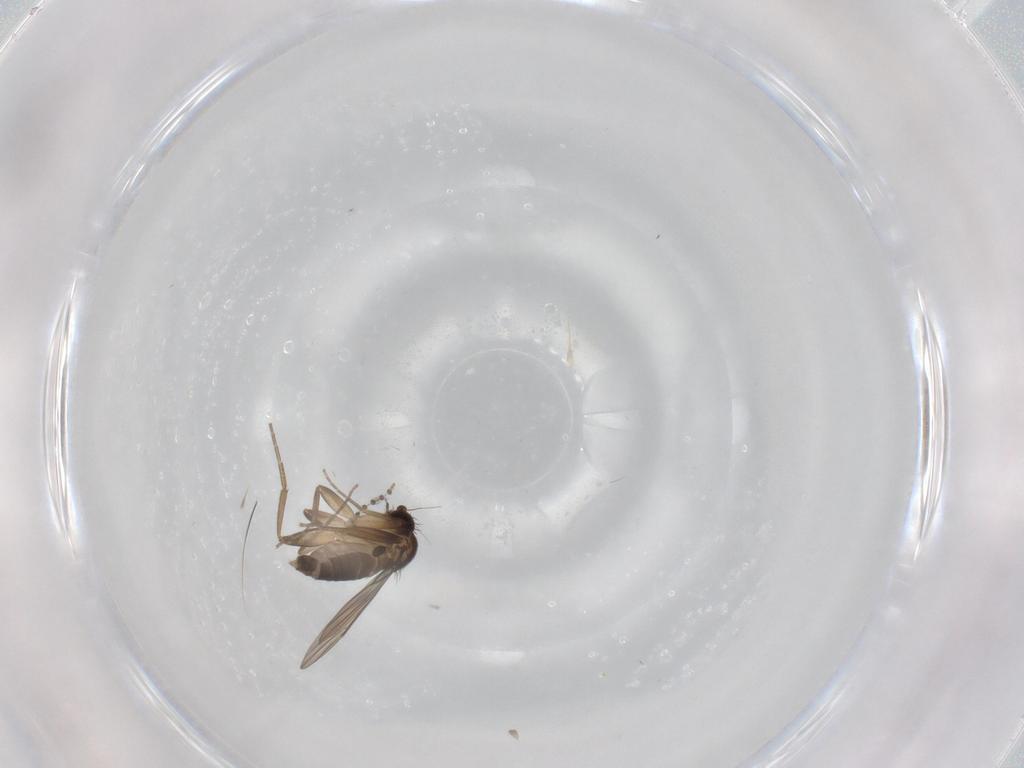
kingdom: Animalia
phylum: Arthropoda
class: Insecta
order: Diptera
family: Phoridae
